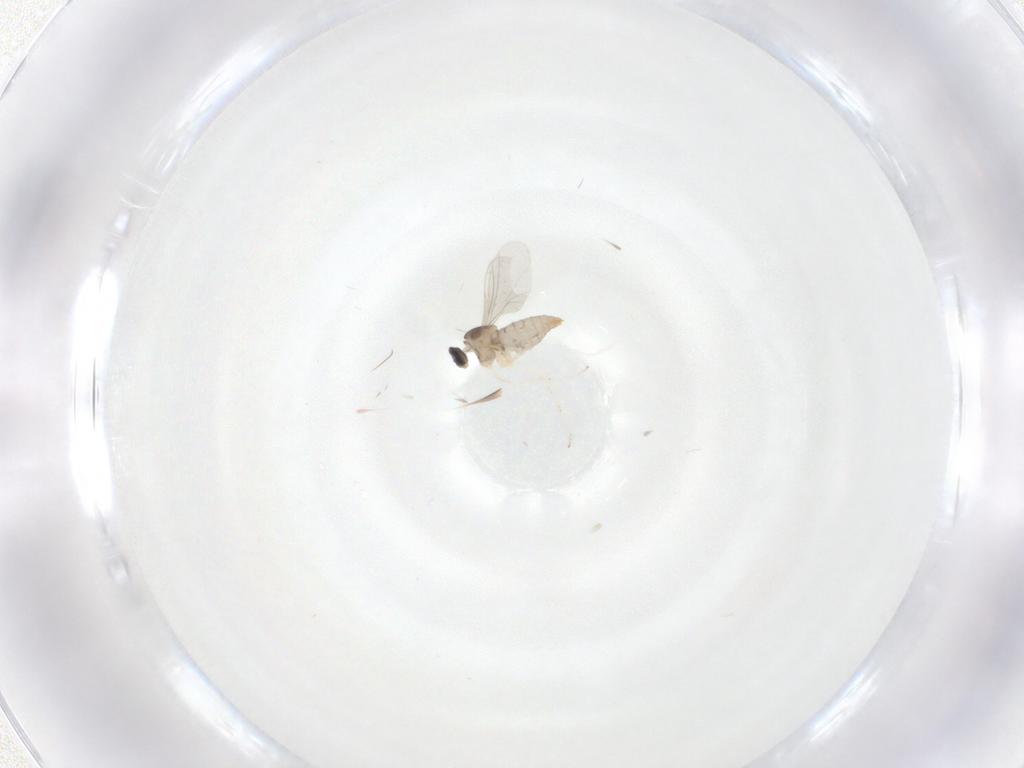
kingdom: Animalia
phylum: Arthropoda
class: Insecta
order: Diptera
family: Cecidomyiidae
